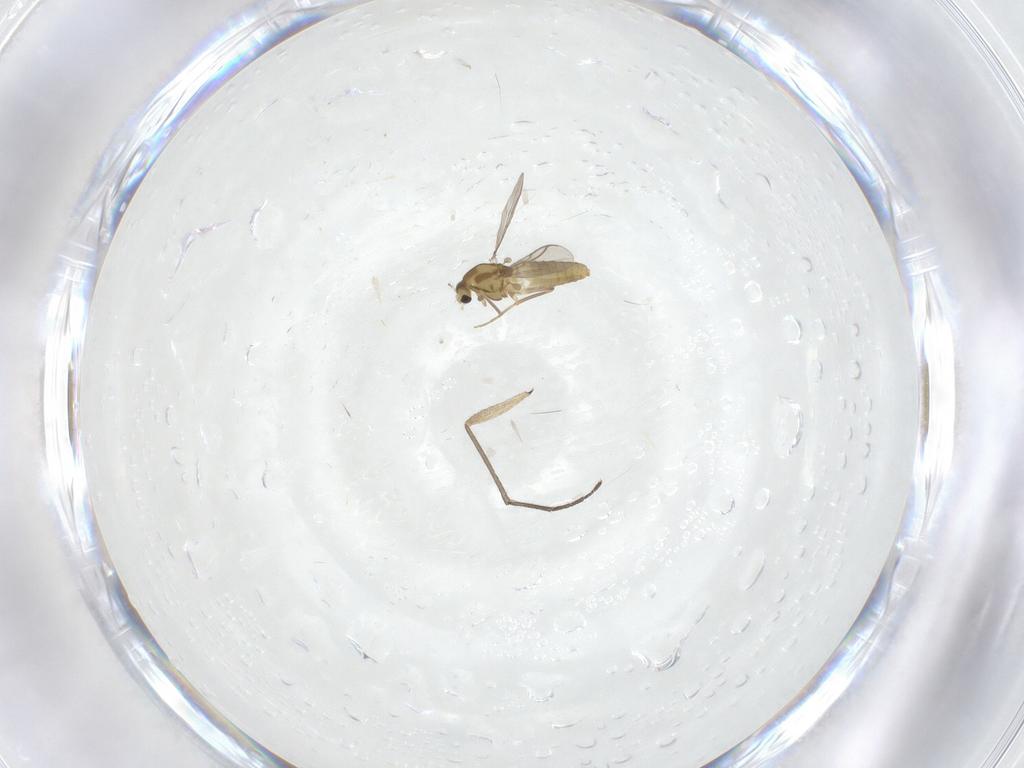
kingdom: Animalia
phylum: Arthropoda
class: Insecta
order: Diptera
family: Chironomidae
